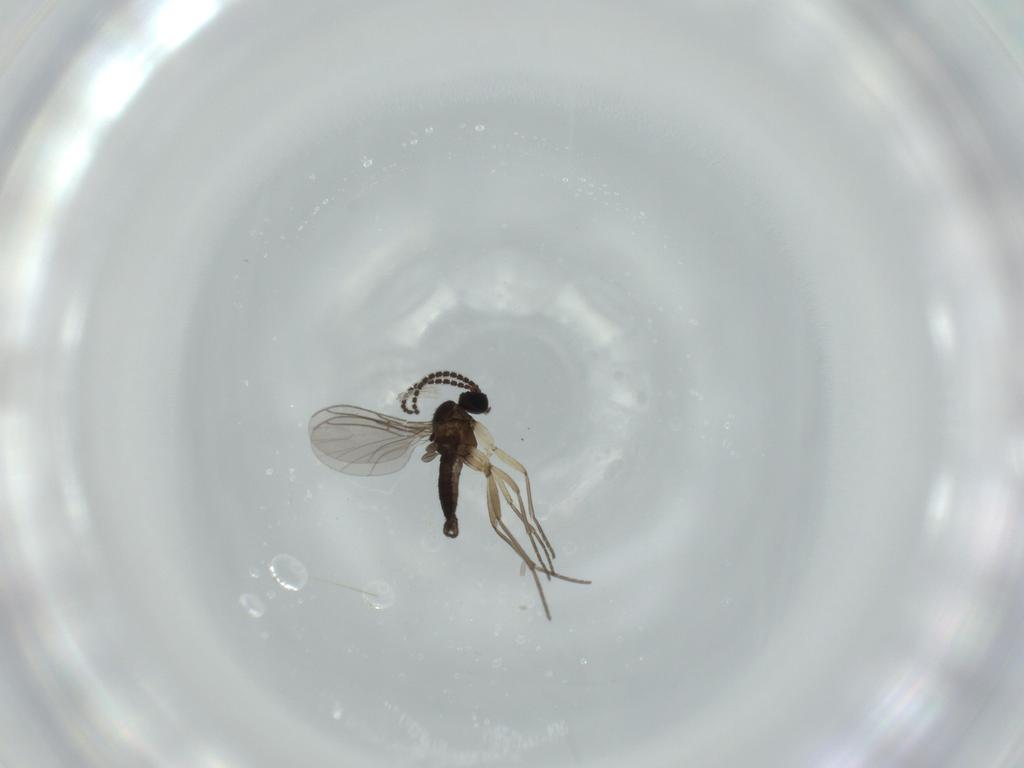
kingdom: Animalia
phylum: Arthropoda
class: Insecta
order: Diptera
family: Sciaridae
